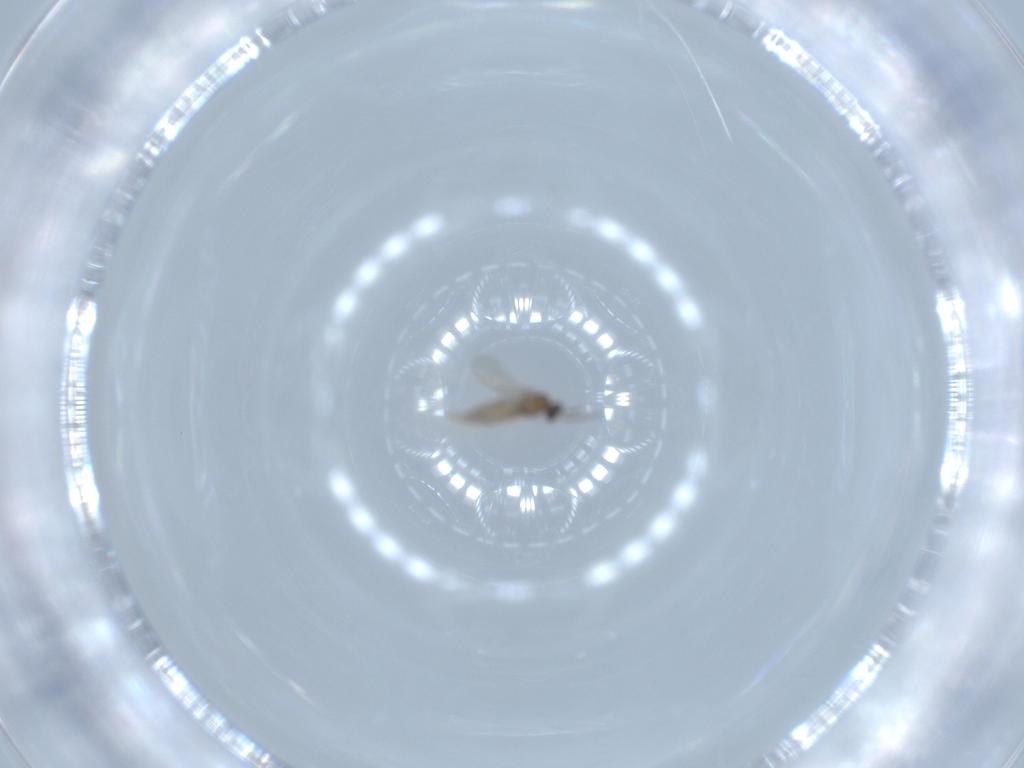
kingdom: Animalia
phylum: Arthropoda
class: Insecta
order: Diptera
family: Cecidomyiidae
